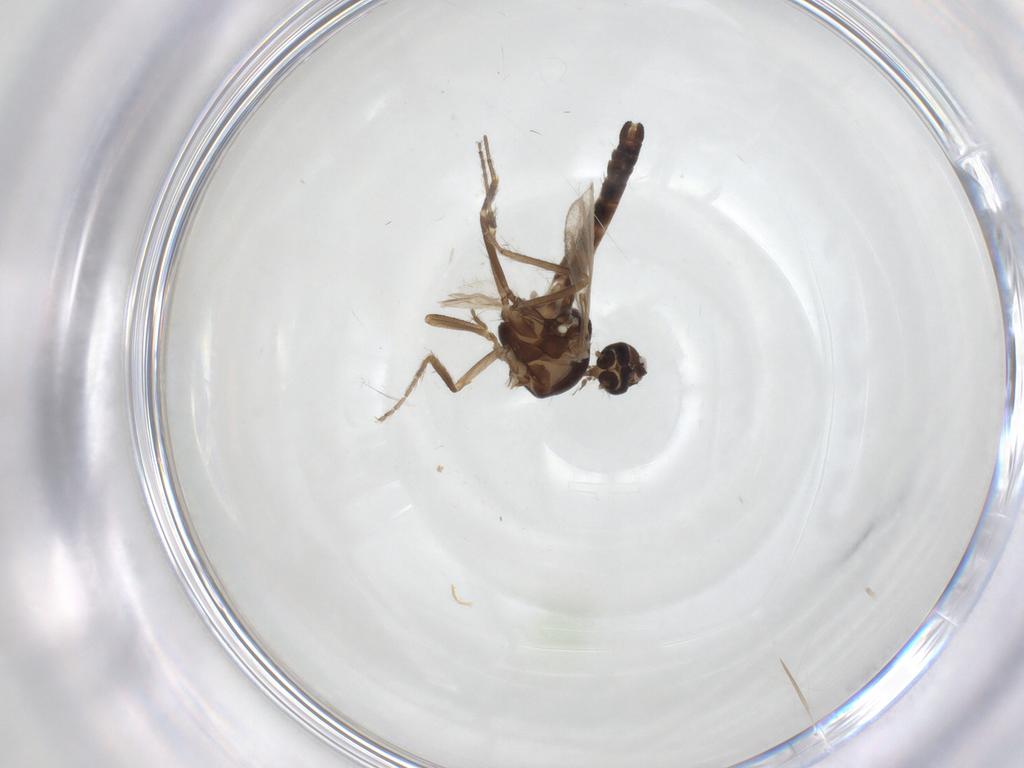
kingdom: Animalia
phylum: Arthropoda
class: Insecta
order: Diptera
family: Ceratopogonidae
